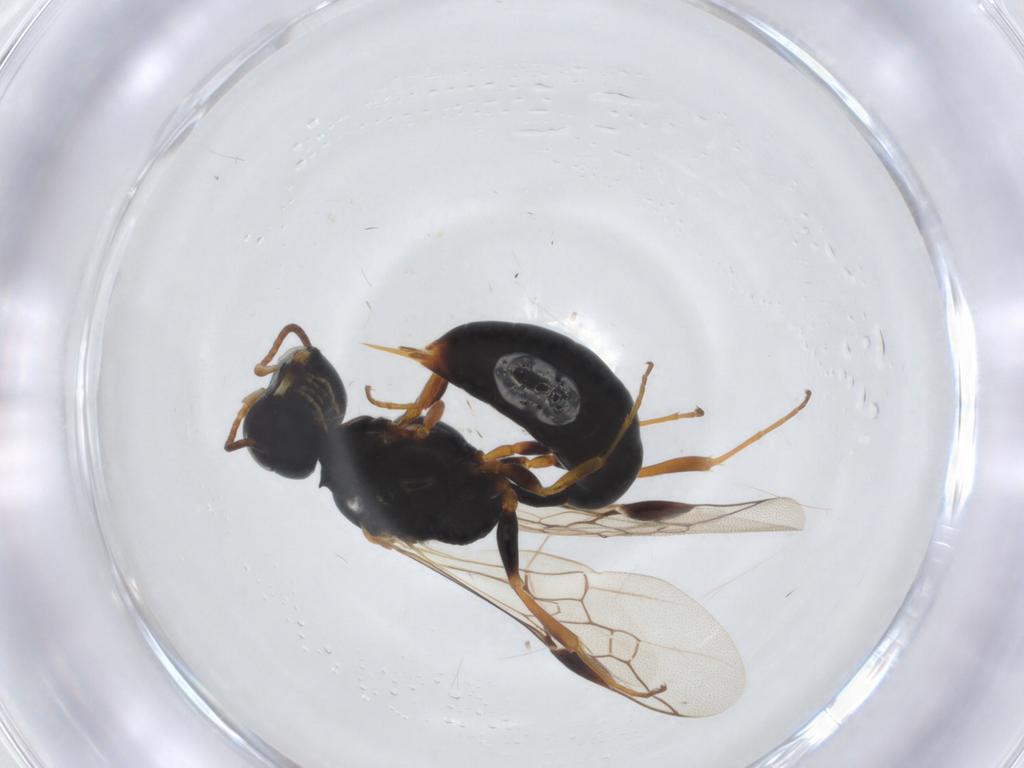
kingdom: Animalia
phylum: Arthropoda
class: Insecta
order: Hymenoptera
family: Crabronidae
